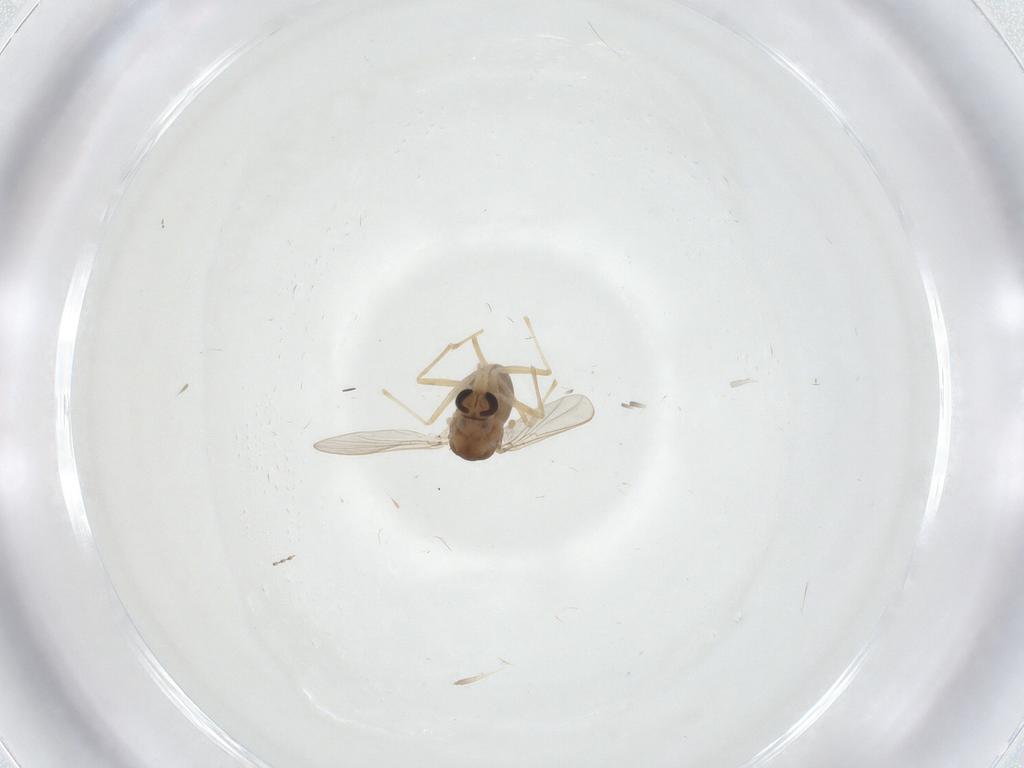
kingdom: Animalia
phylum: Arthropoda
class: Insecta
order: Diptera
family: Chironomidae
